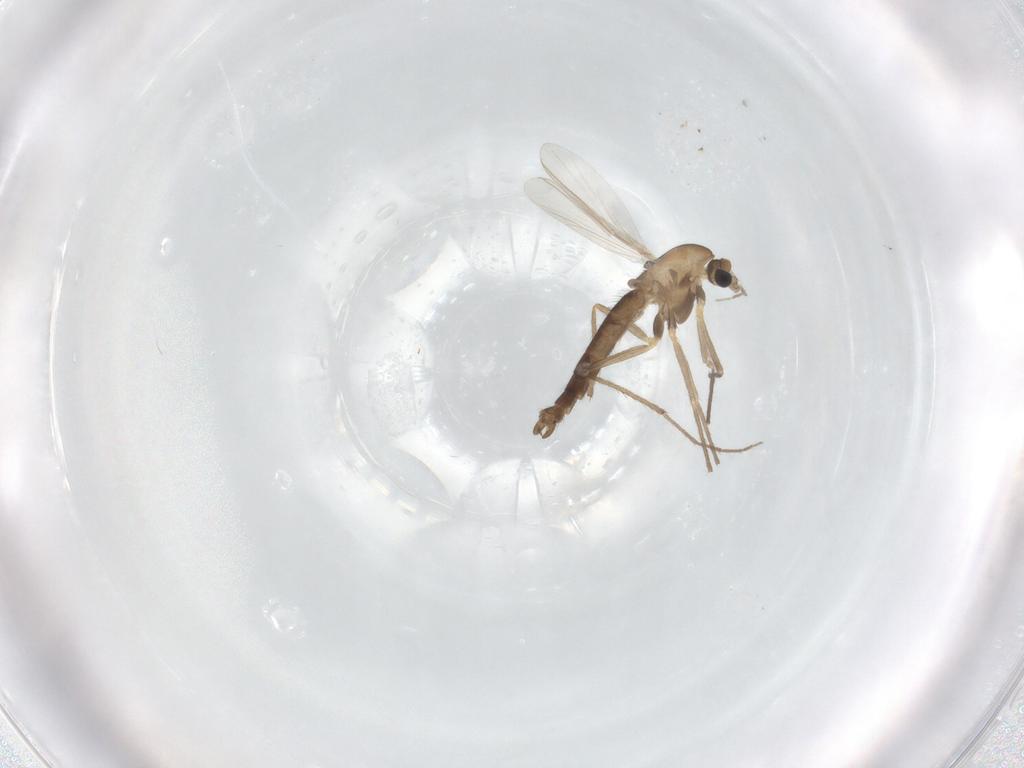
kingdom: Animalia
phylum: Arthropoda
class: Insecta
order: Diptera
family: Chironomidae
